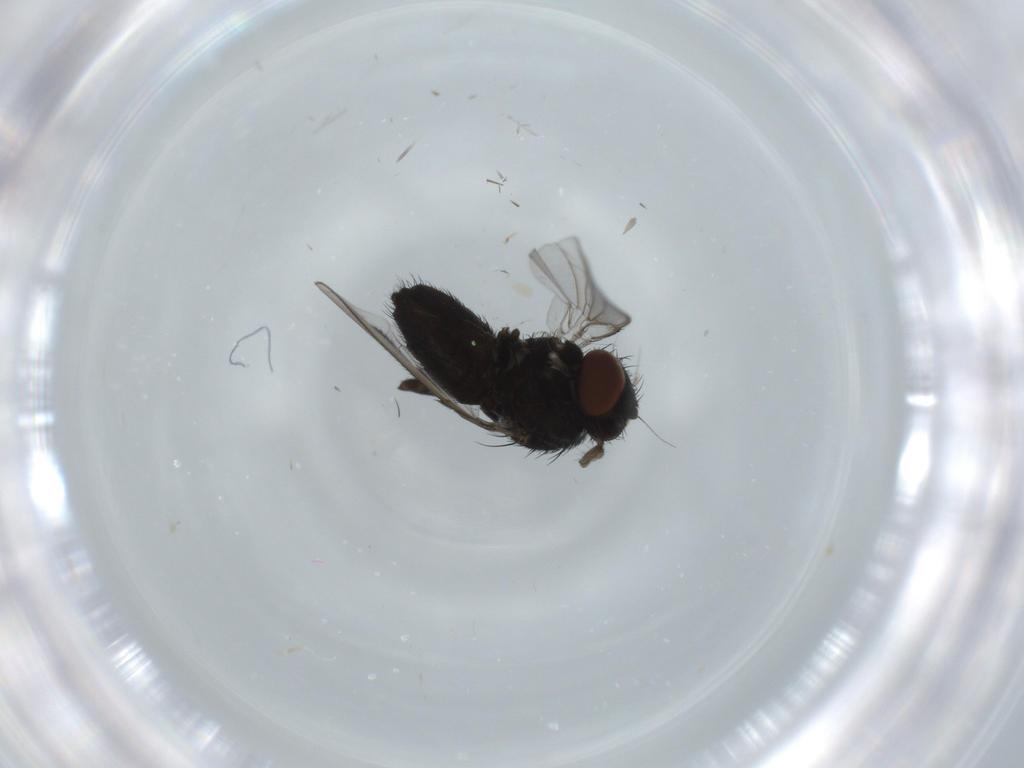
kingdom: Animalia
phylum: Arthropoda
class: Insecta
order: Diptera
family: Milichiidae
